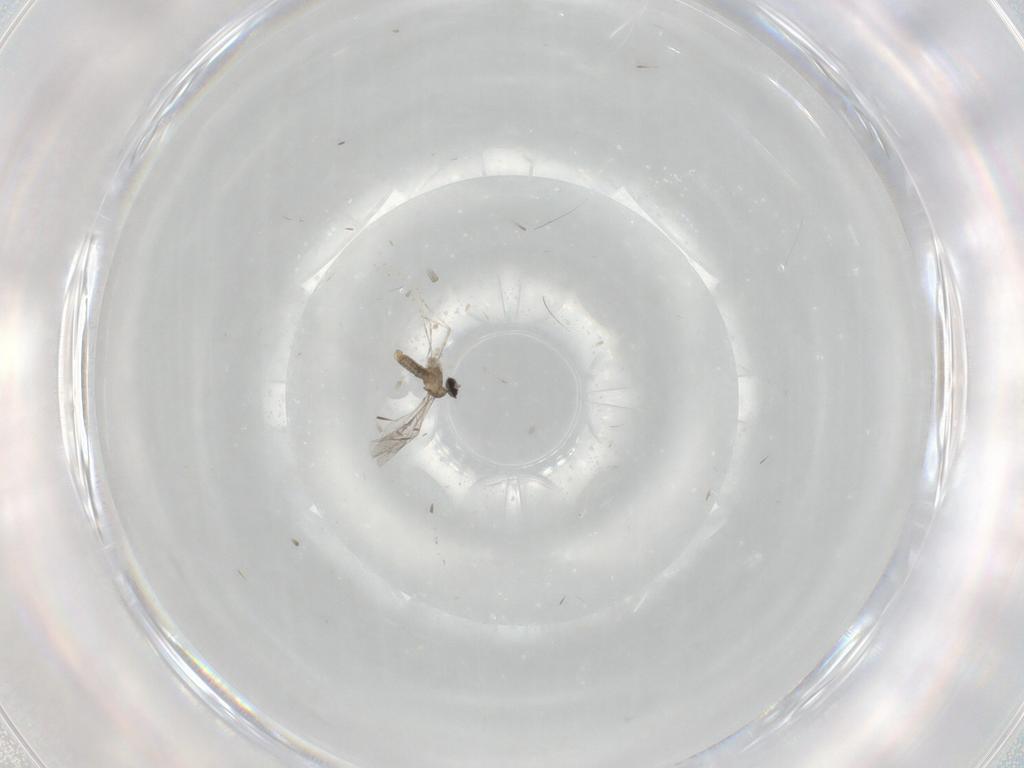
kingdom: Animalia
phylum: Arthropoda
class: Insecta
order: Diptera
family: Cecidomyiidae
